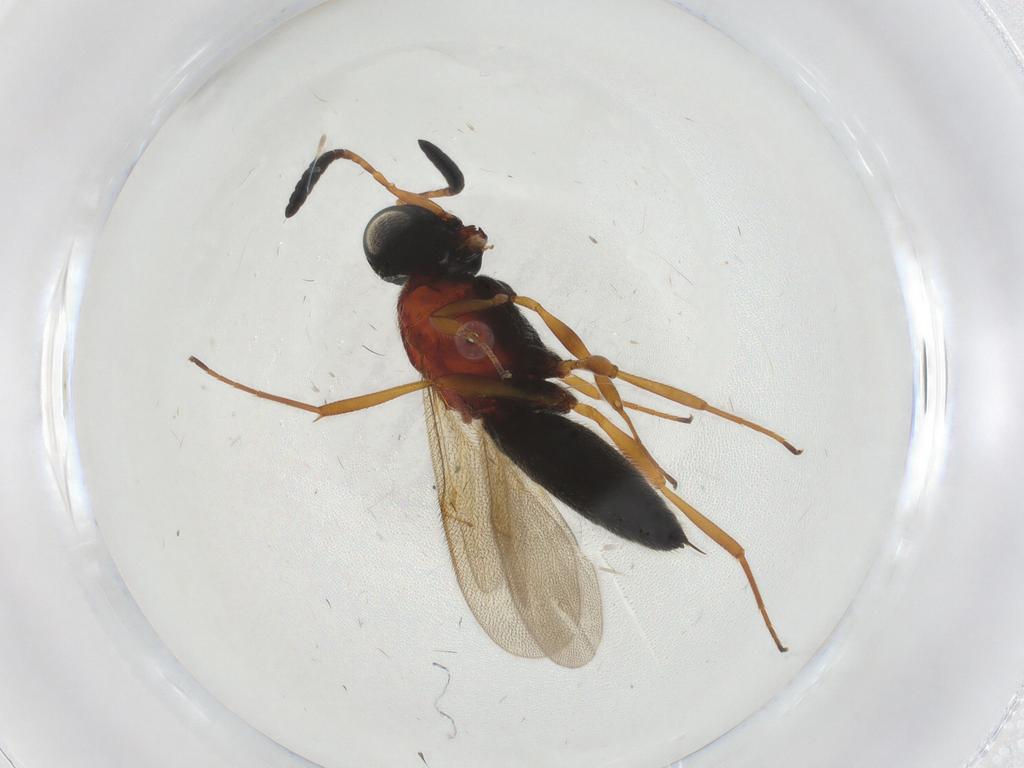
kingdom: Animalia
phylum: Arthropoda
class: Insecta
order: Hymenoptera
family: Scelionidae
